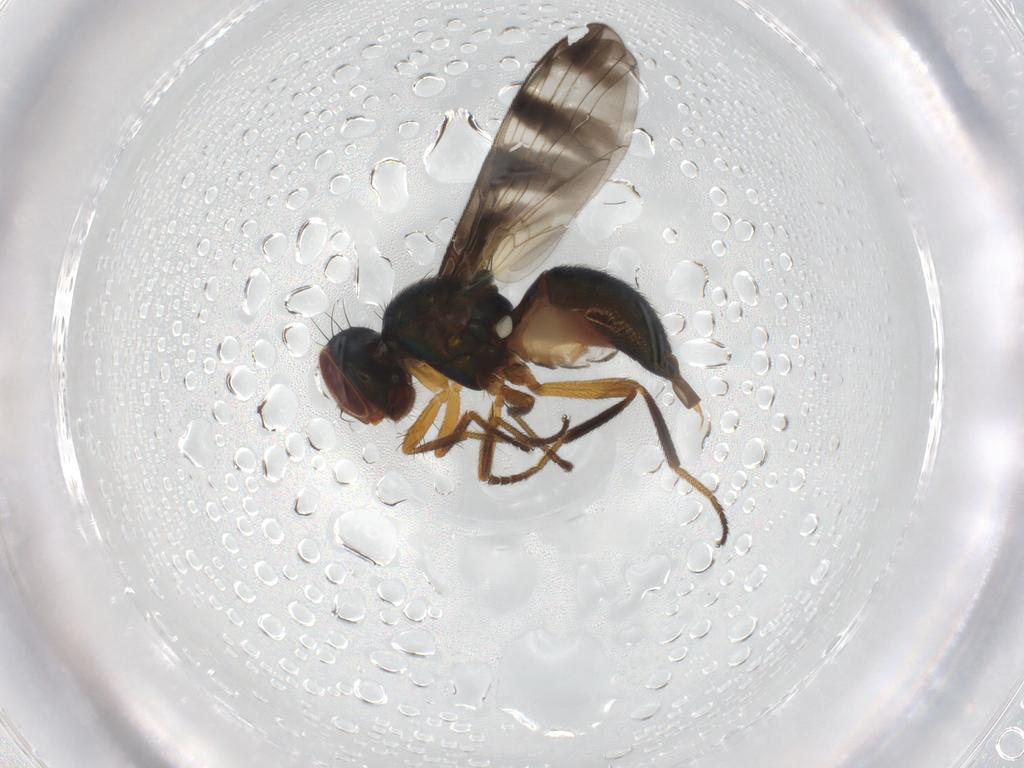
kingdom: Animalia
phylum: Arthropoda
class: Insecta
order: Diptera
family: Platystomatidae
